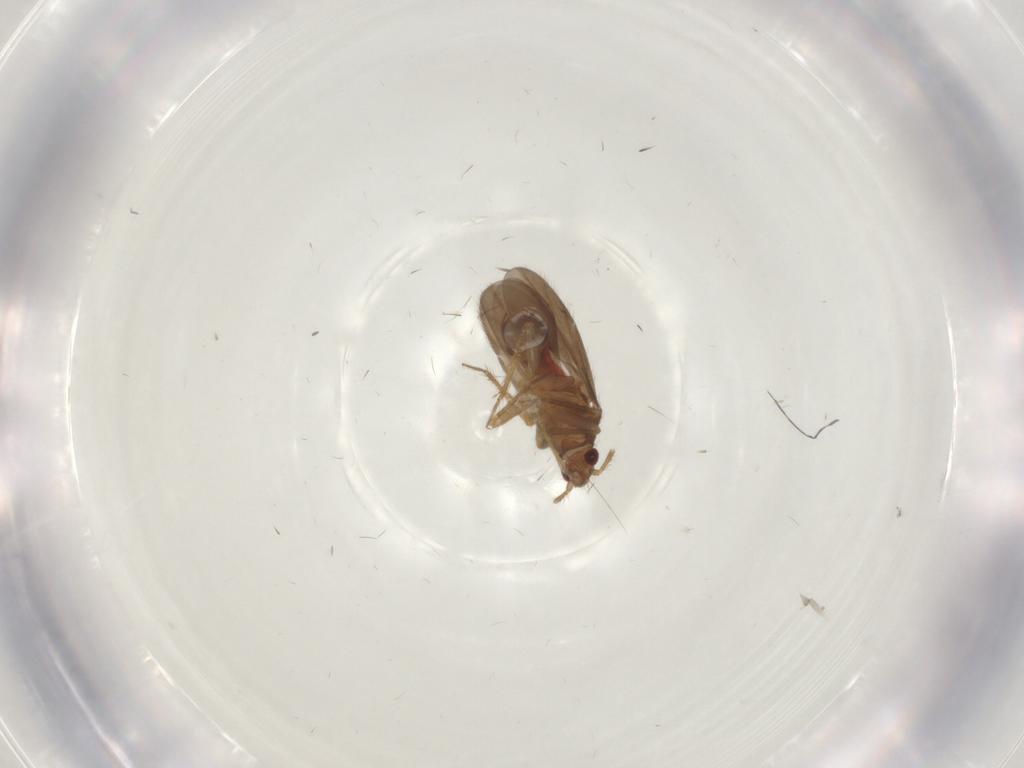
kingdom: Animalia
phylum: Arthropoda
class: Insecta
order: Hemiptera
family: Ceratocombidae
